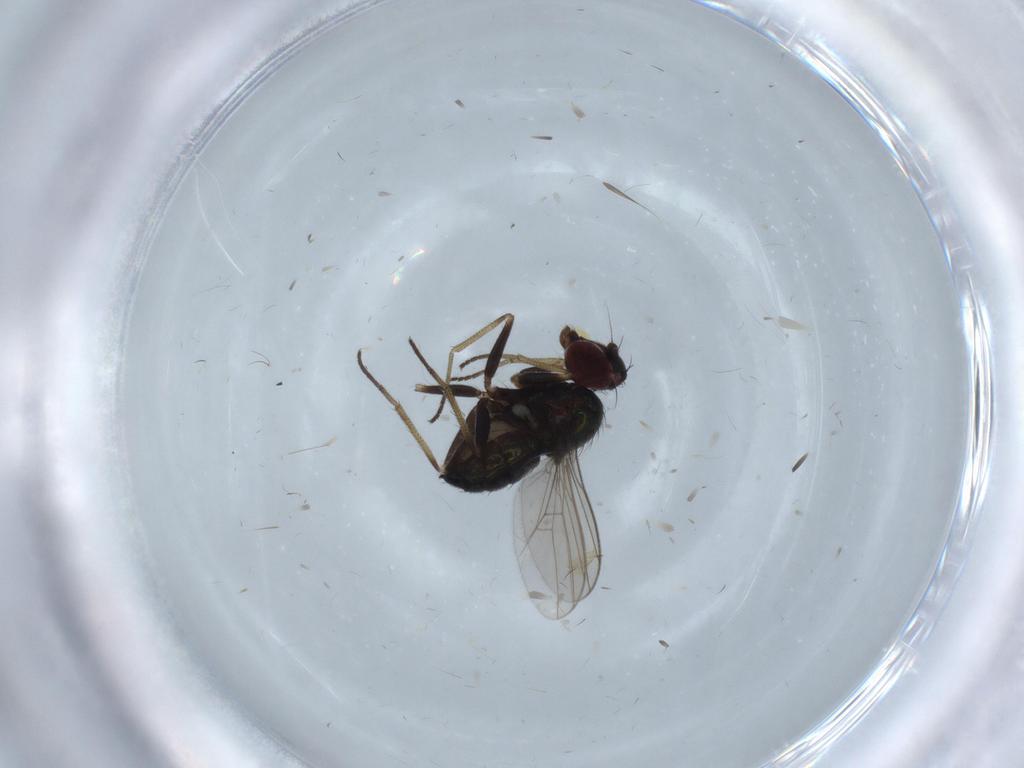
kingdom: Animalia
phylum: Arthropoda
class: Insecta
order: Diptera
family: Dolichopodidae
